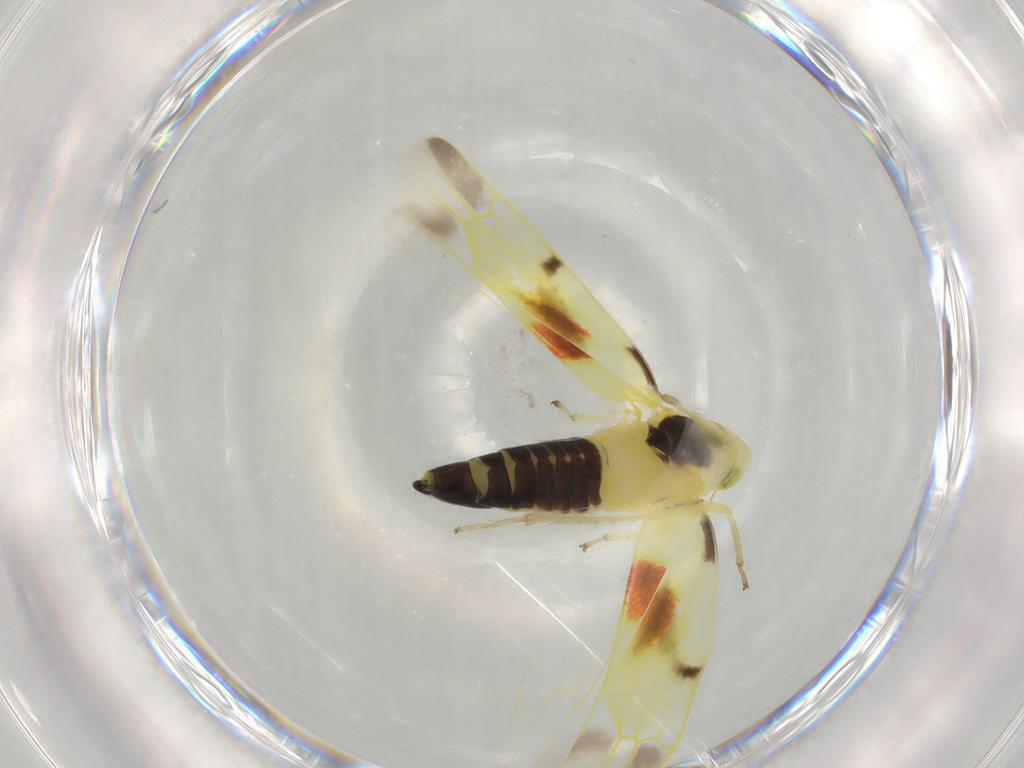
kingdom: Animalia
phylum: Arthropoda
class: Insecta
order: Hemiptera
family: Cicadellidae
